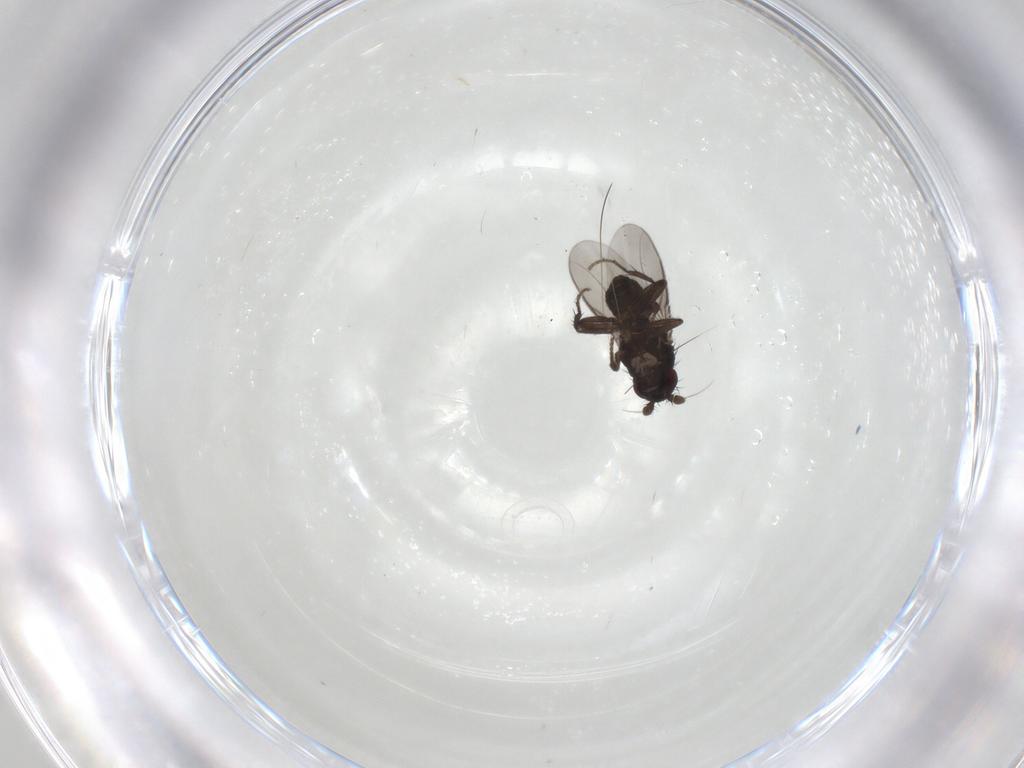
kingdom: Animalia
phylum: Arthropoda
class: Insecta
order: Diptera
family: Sphaeroceridae
